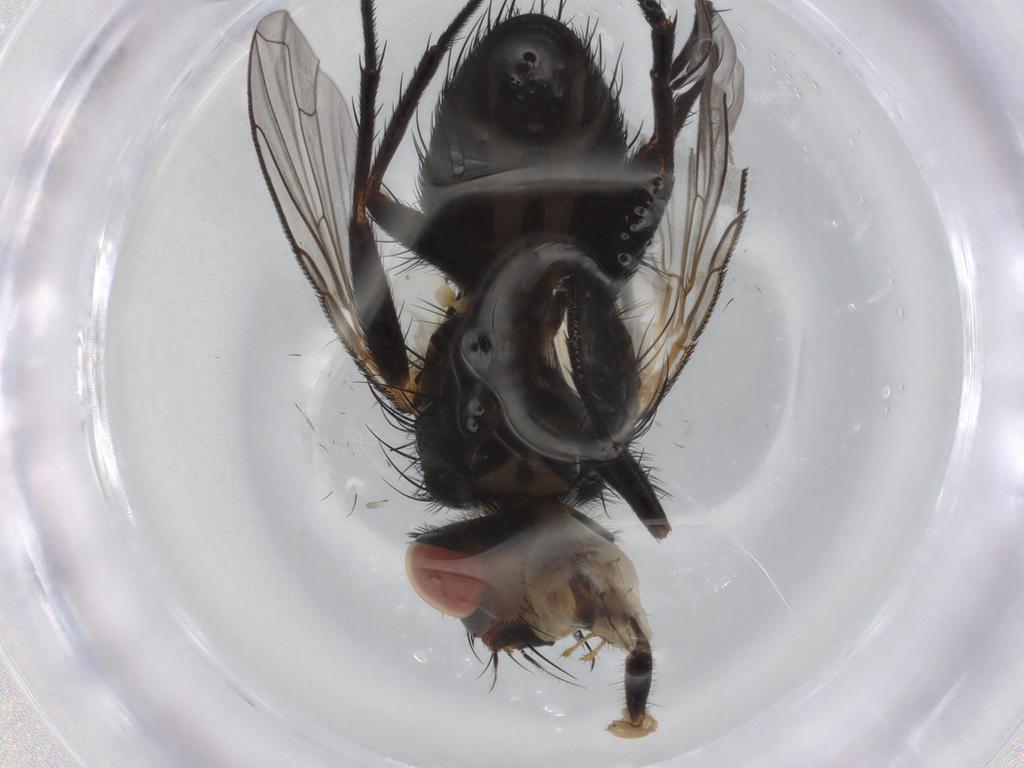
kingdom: Animalia
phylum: Arthropoda
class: Insecta
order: Diptera
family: Tachinidae
